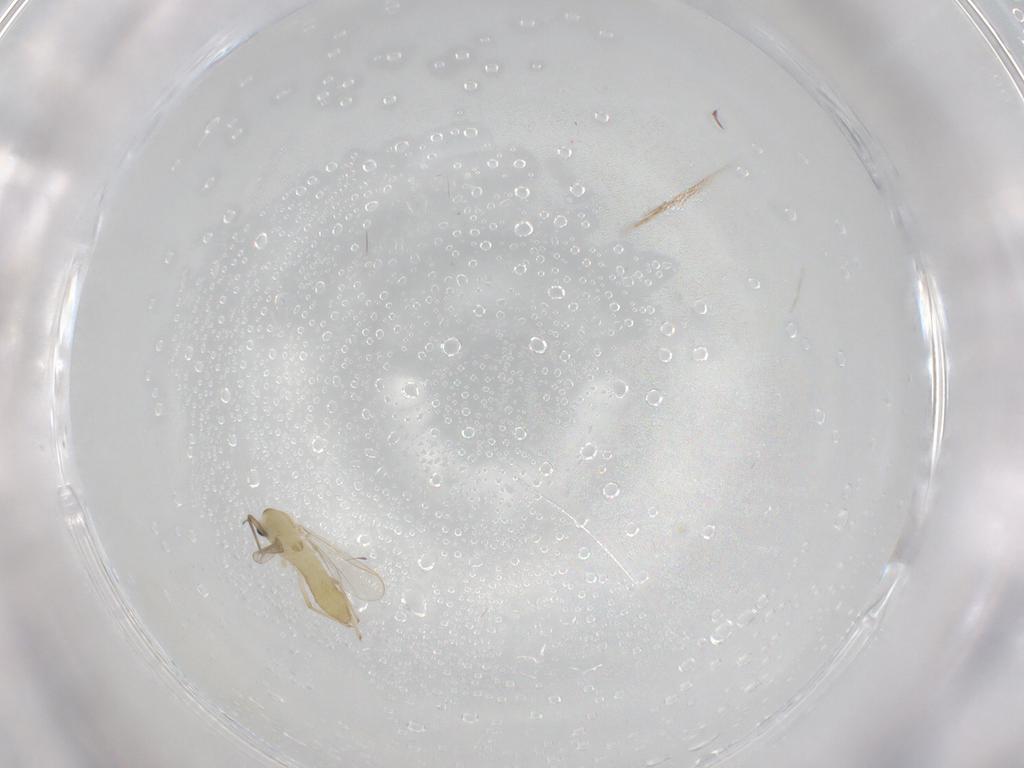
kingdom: Animalia
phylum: Arthropoda
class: Insecta
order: Diptera
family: Chironomidae
